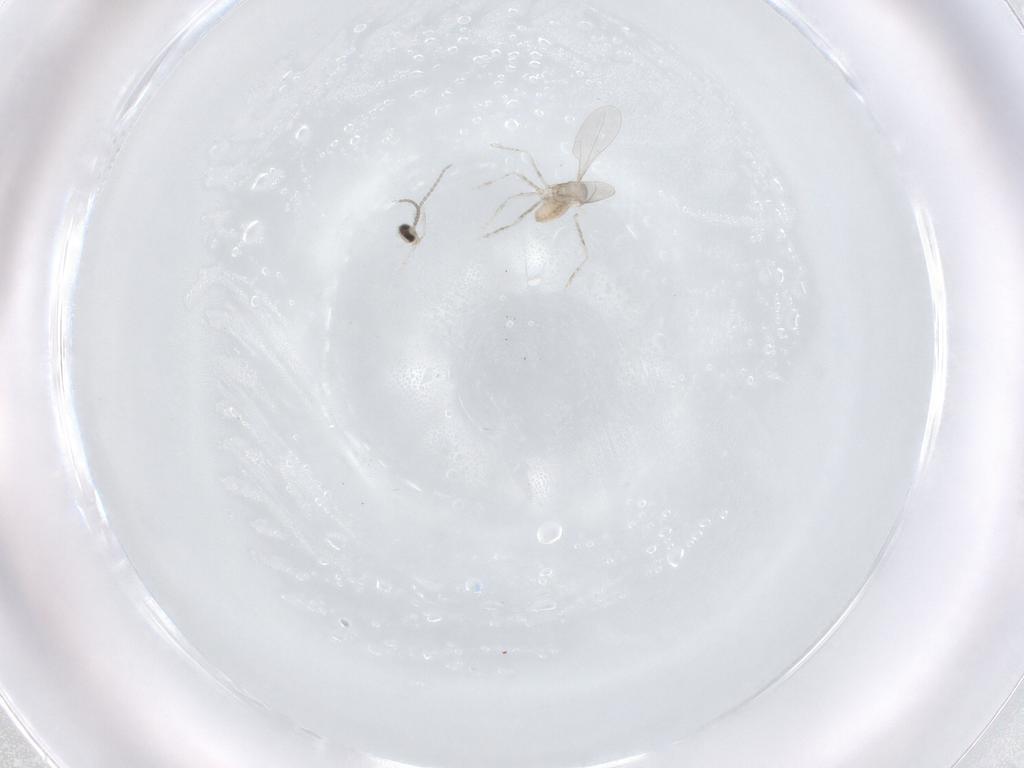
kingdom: Animalia
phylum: Arthropoda
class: Insecta
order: Diptera
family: Cecidomyiidae
